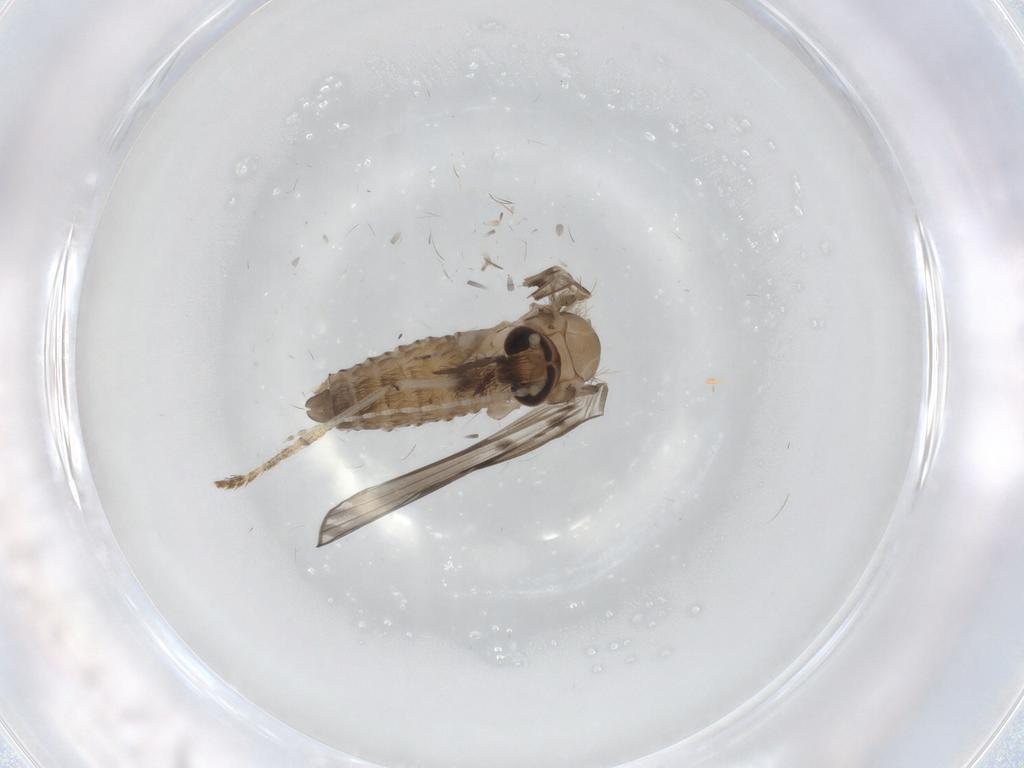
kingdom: Animalia
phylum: Arthropoda
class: Insecta
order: Diptera
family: Psychodidae
